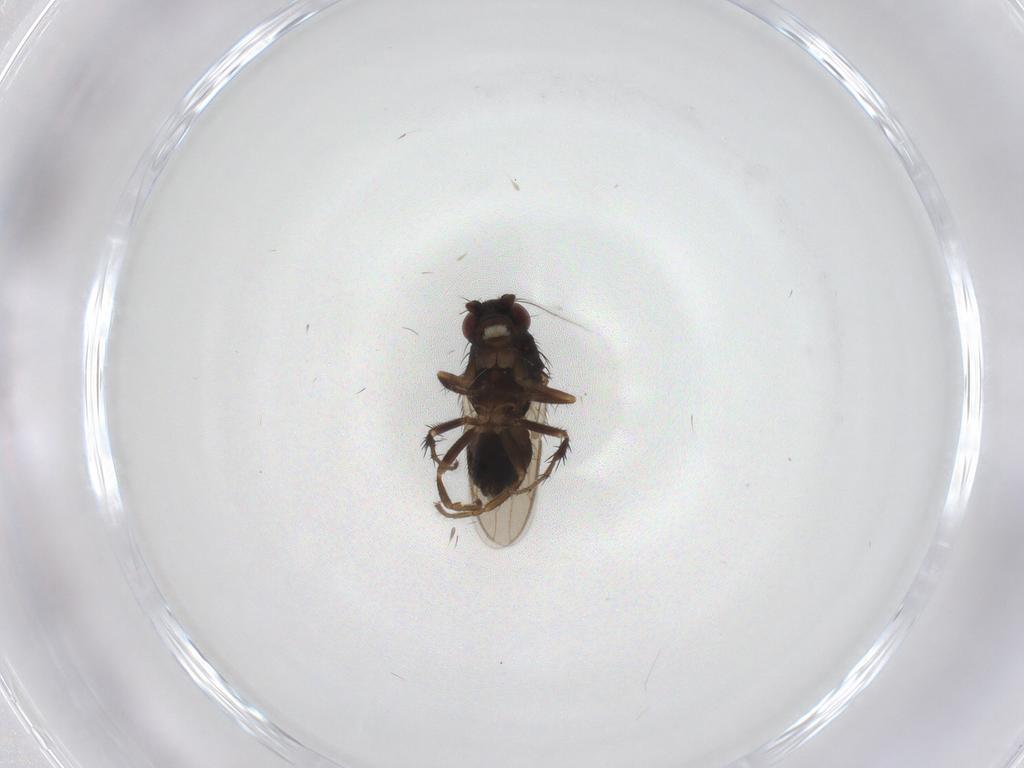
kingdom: Animalia
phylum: Arthropoda
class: Insecta
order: Diptera
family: Sphaeroceridae
